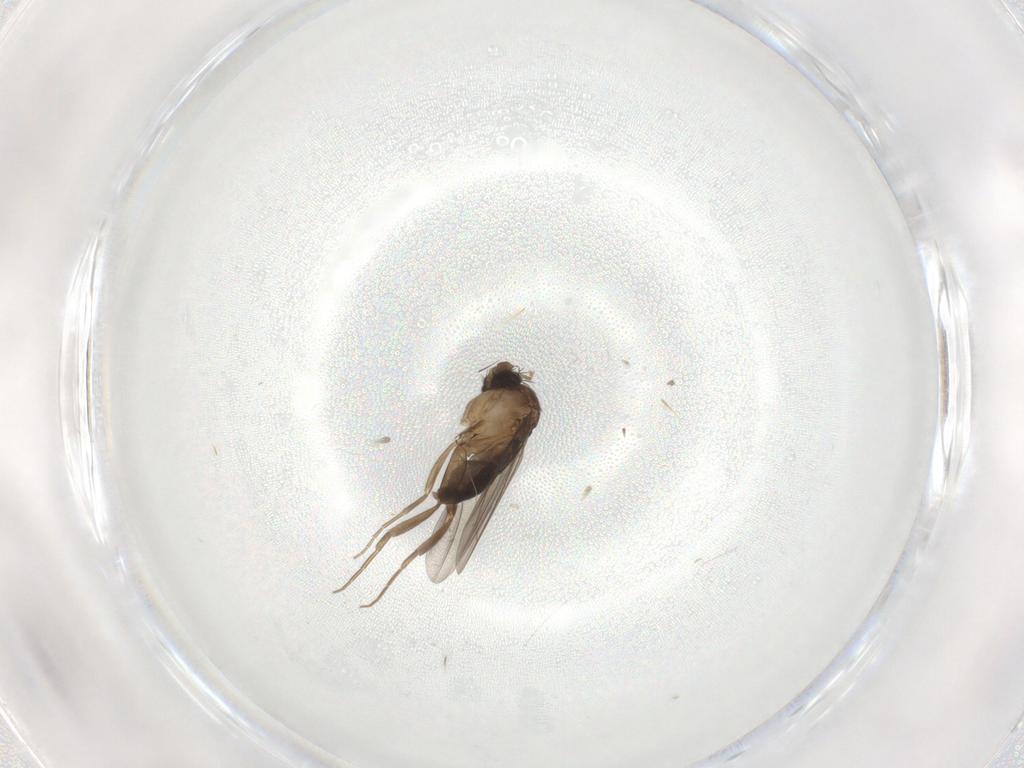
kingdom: Animalia
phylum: Arthropoda
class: Insecta
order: Diptera
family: Phoridae
